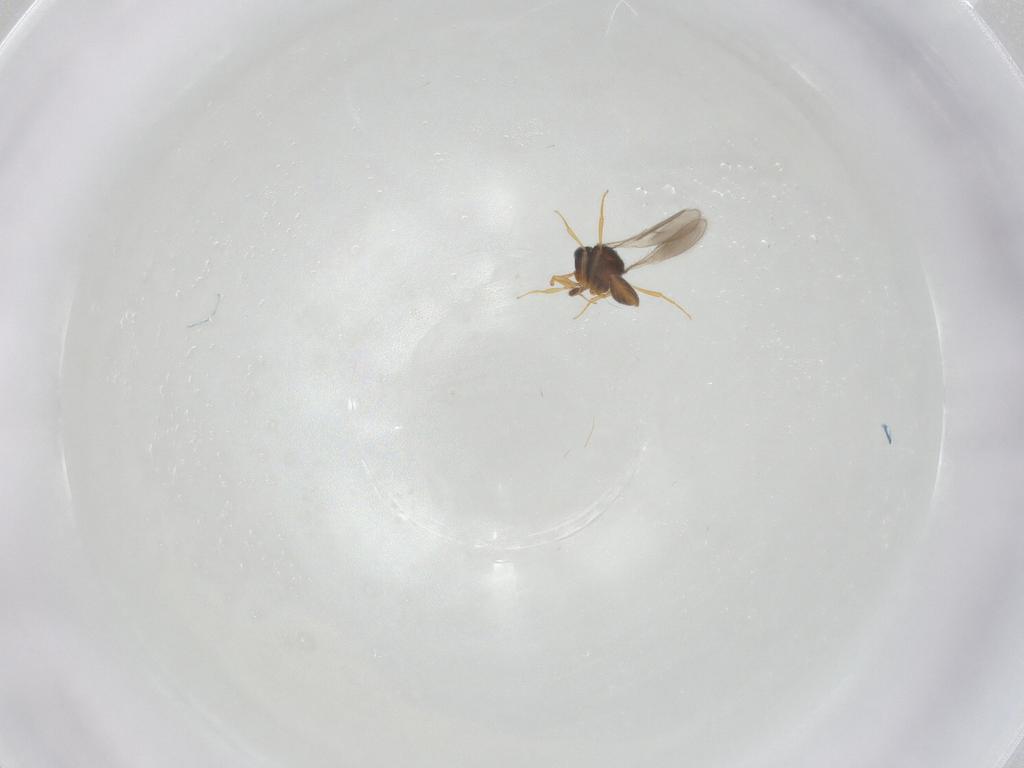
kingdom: Animalia
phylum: Arthropoda
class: Insecta
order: Hymenoptera
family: Scelionidae
